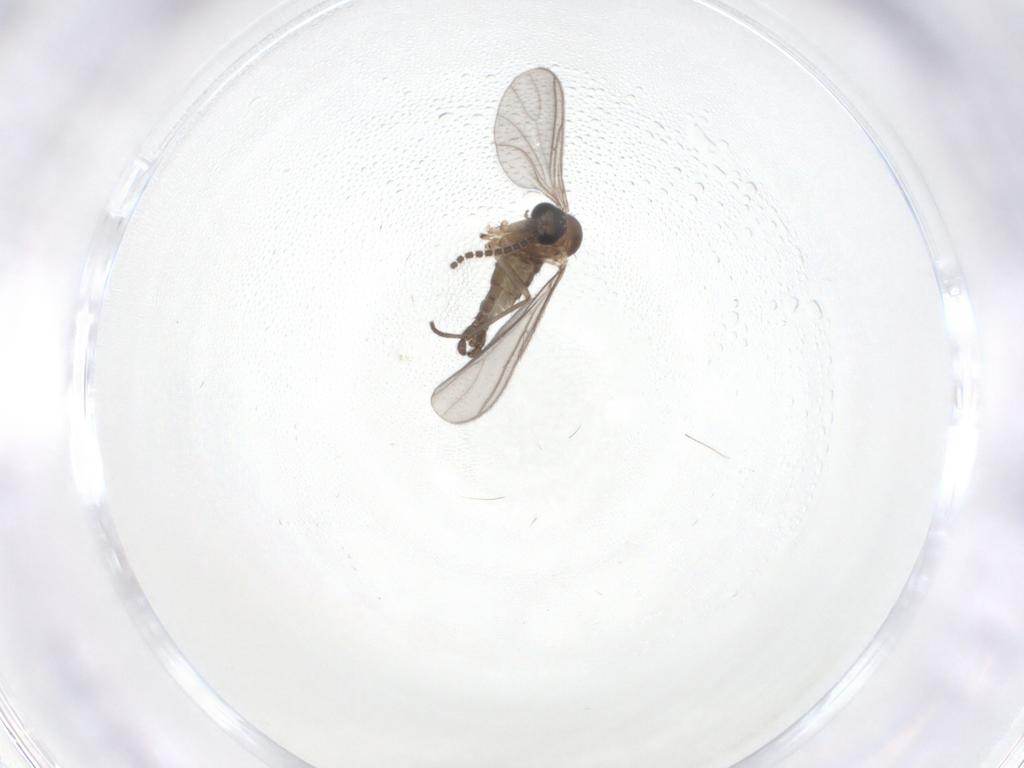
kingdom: Animalia
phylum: Arthropoda
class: Insecta
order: Diptera
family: Sciaridae
